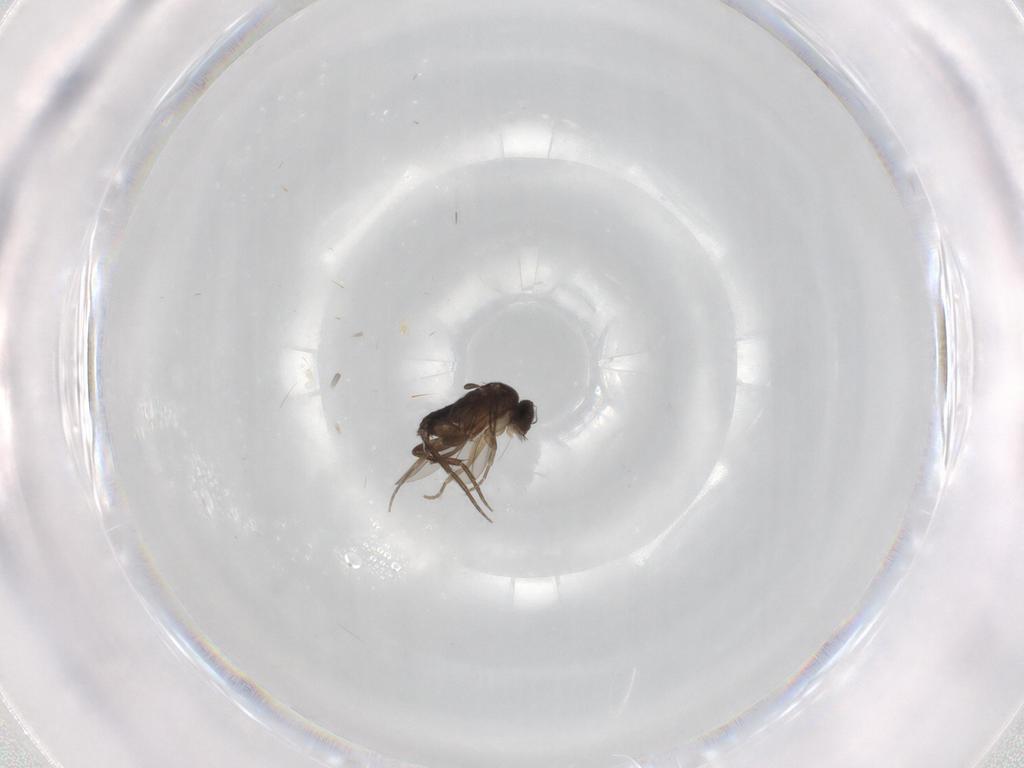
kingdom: Animalia
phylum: Arthropoda
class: Insecta
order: Diptera
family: Phoridae
